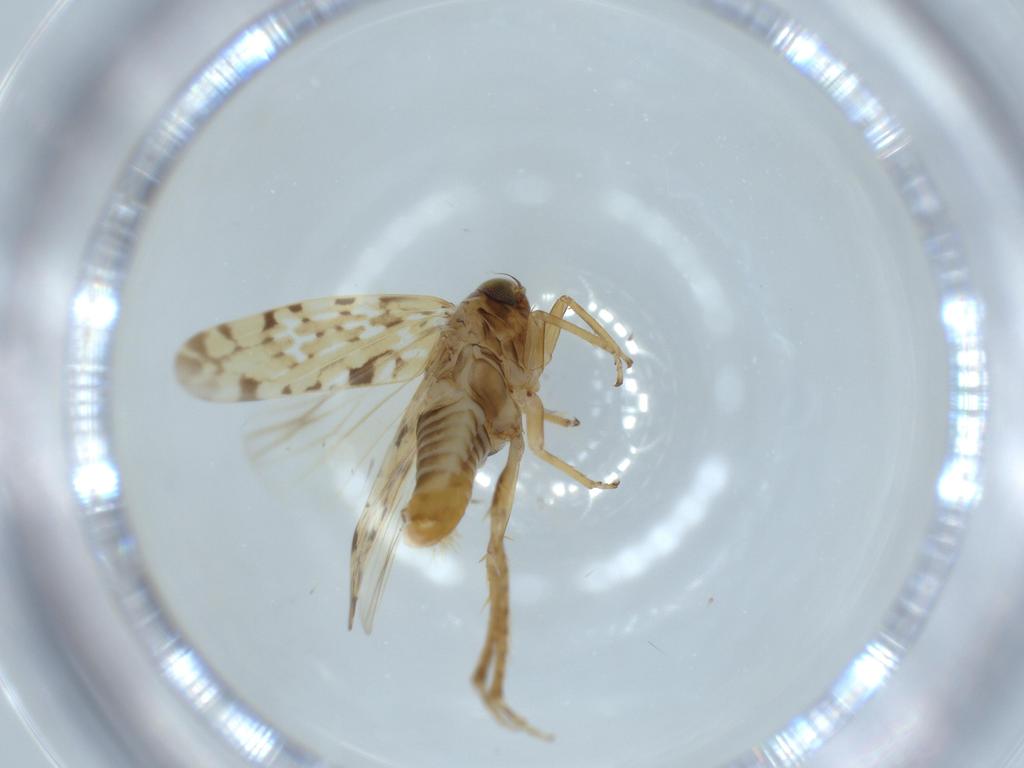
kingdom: Animalia
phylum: Arthropoda
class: Insecta
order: Hemiptera
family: Cicadellidae
